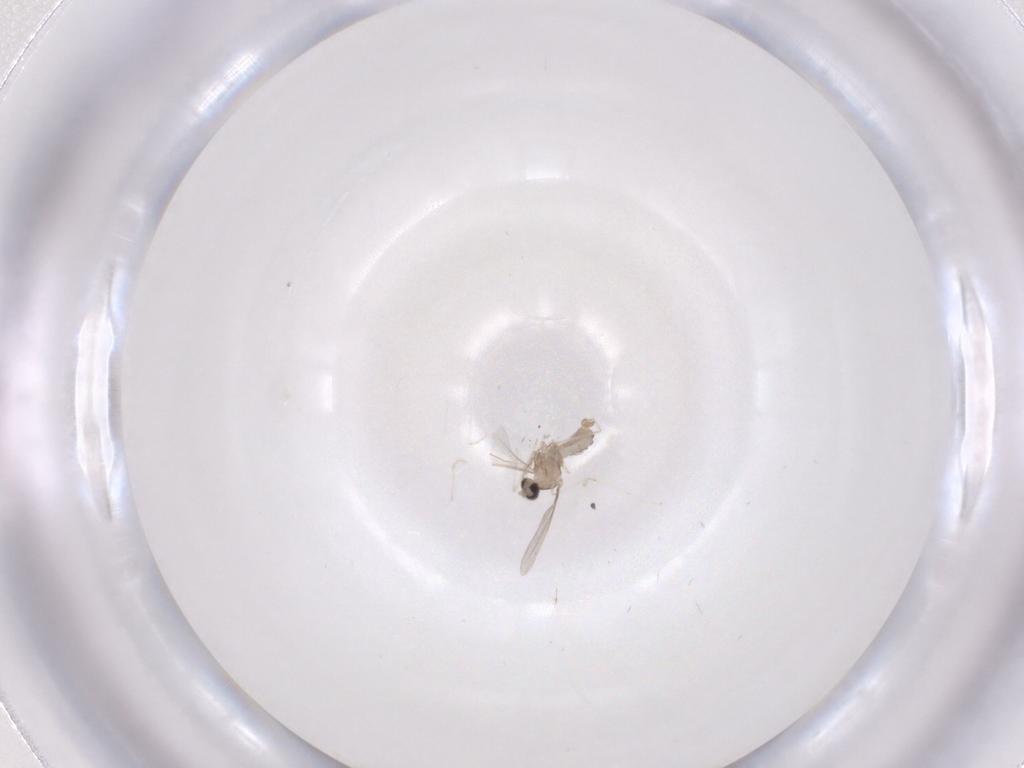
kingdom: Animalia
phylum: Arthropoda
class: Insecta
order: Diptera
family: Cecidomyiidae
